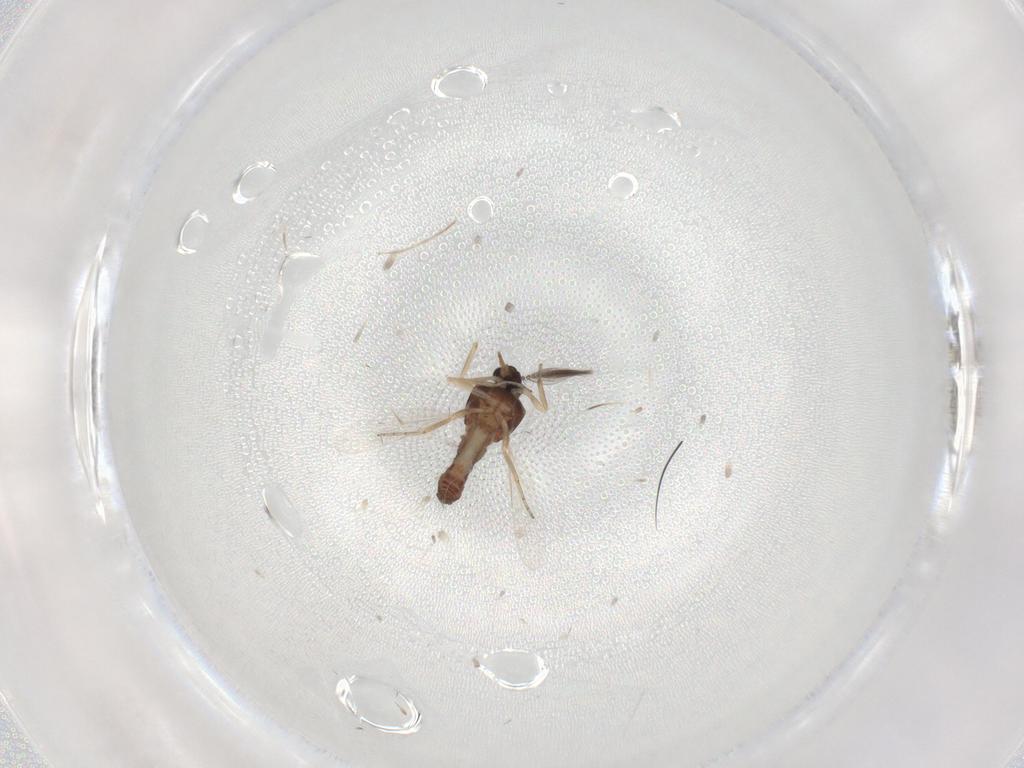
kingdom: Animalia
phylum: Arthropoda
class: Insecta
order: Diptera
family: Ceratopogonidae
